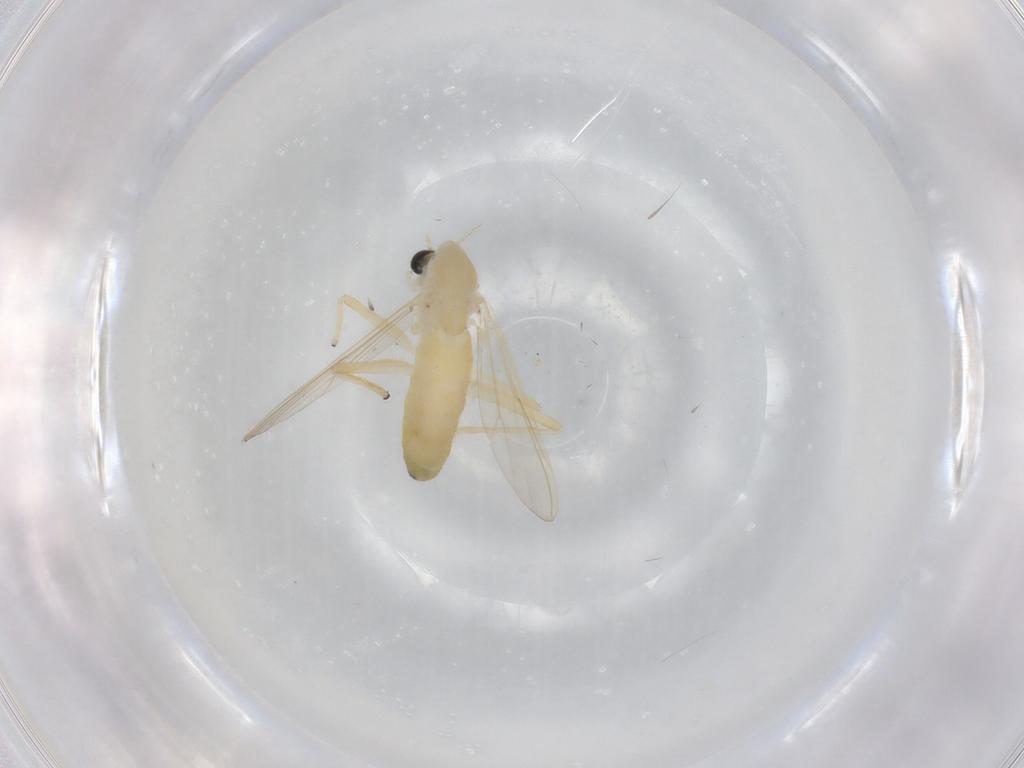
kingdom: Animalia
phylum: Arthropoda
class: Insecta
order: Diptera
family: Chironomidae
